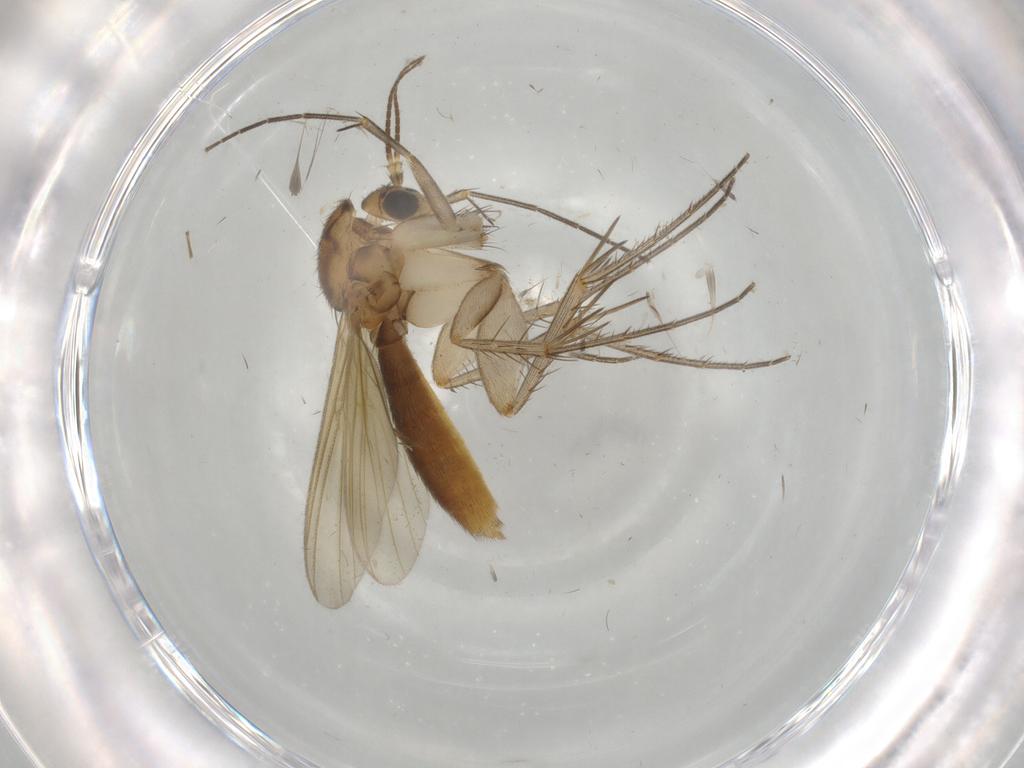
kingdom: Animalia
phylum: Arthropoda
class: Insecta
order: Diptera
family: Mycetophilidae
